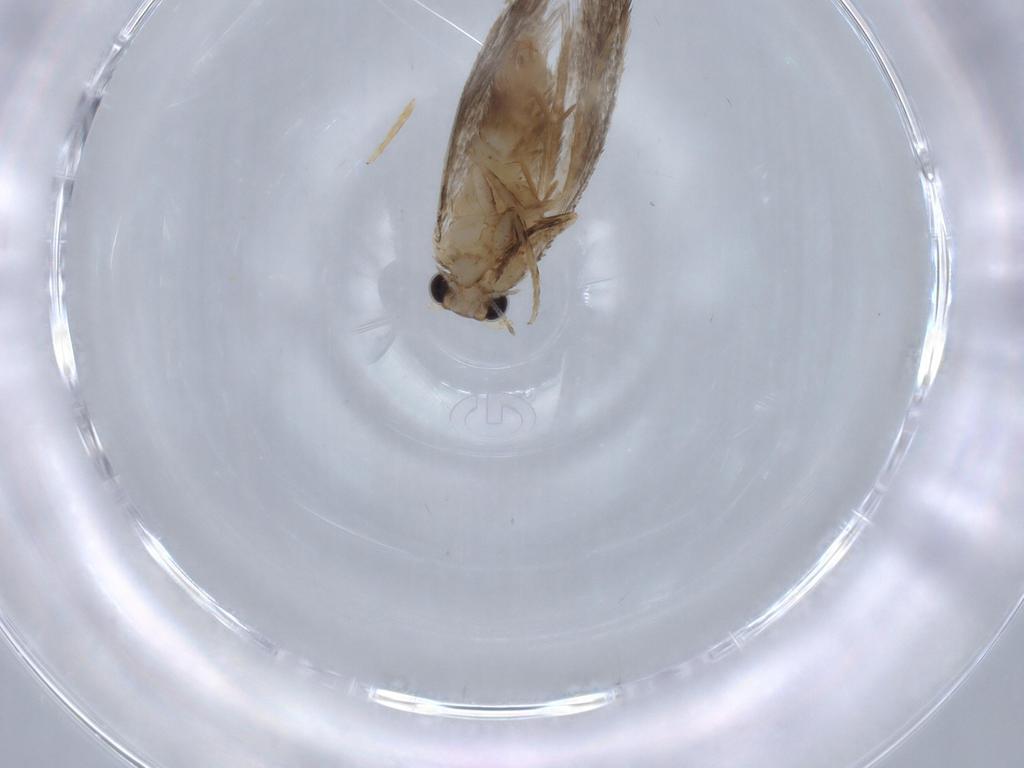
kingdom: Animalia
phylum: Arthropoda
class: Insecta
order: Lepidoptera
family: Tineidae
